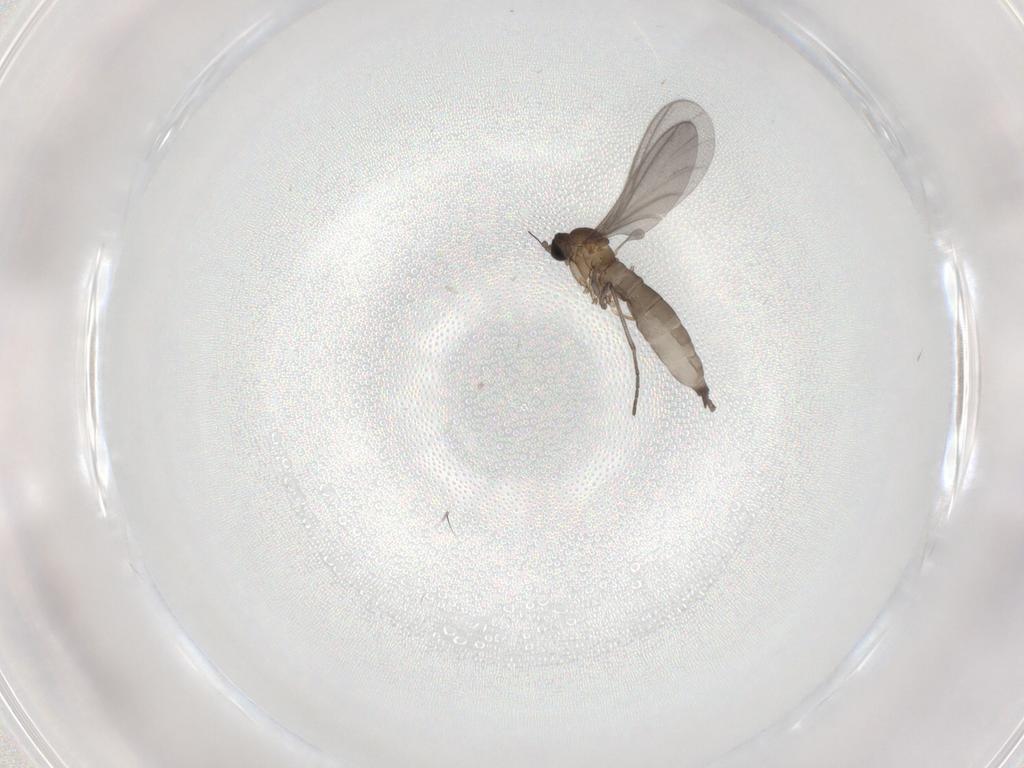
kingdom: Animalia
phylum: Arthropoda
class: Insecta
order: Diptera
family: Sciaridae
